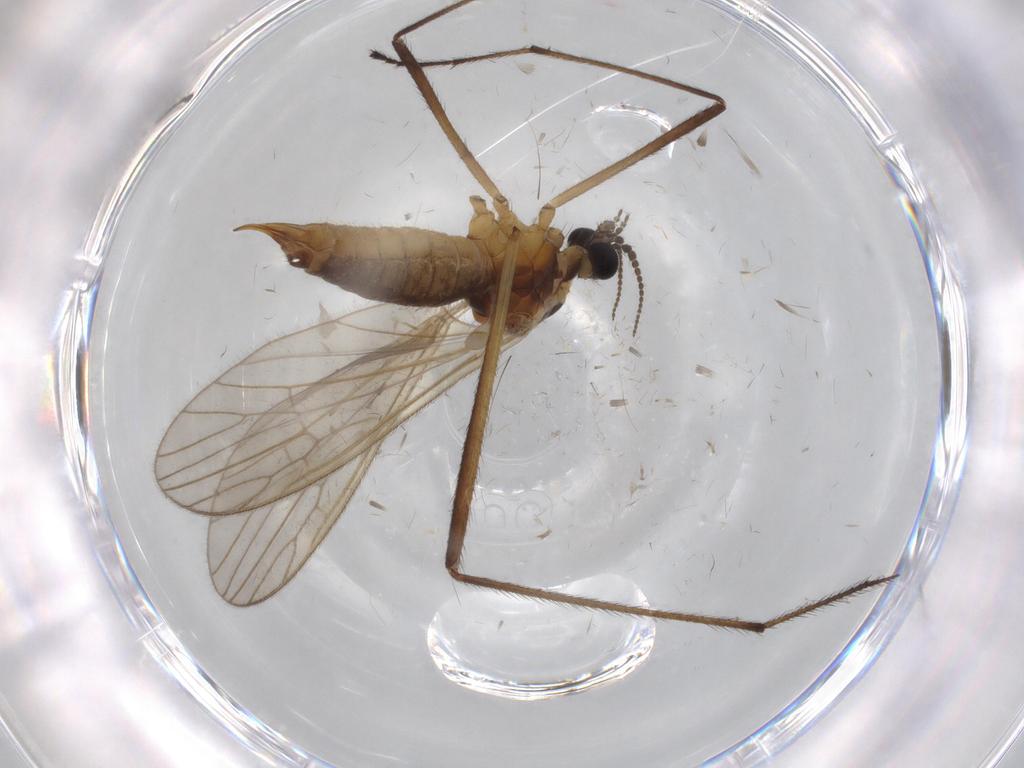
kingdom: Animalia
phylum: Arthropoda
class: Insecta
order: Diptera
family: Agromyzidae
